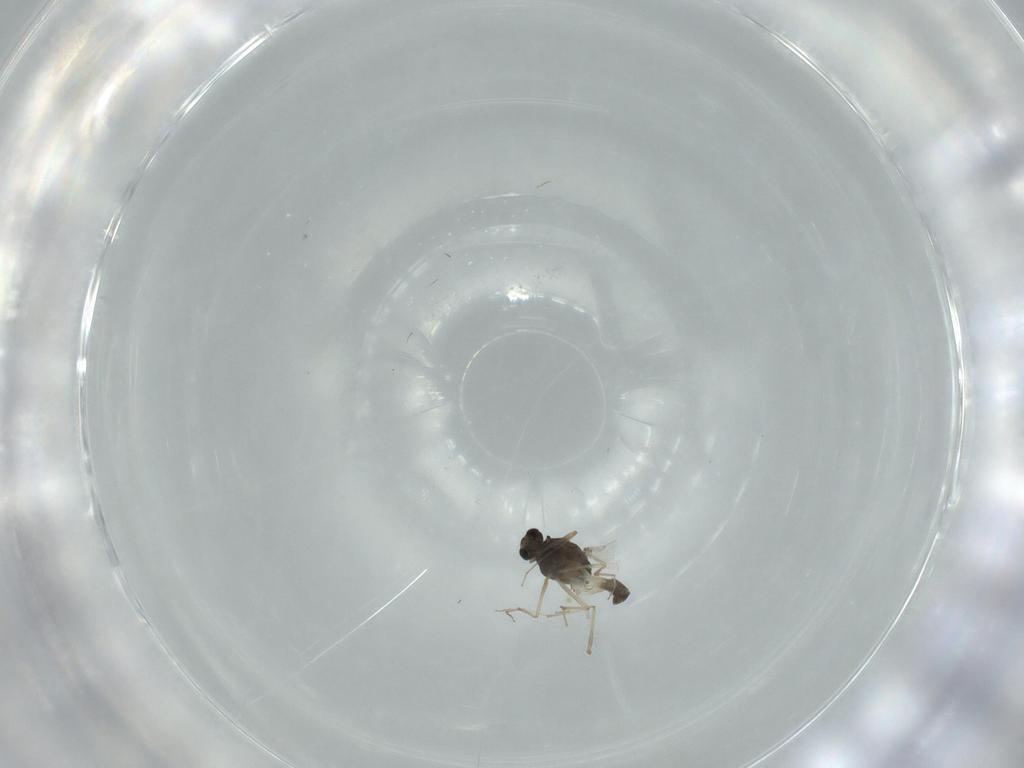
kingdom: Animalia
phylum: Arthropoda
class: Insecta
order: Diptera
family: Chironomidae
